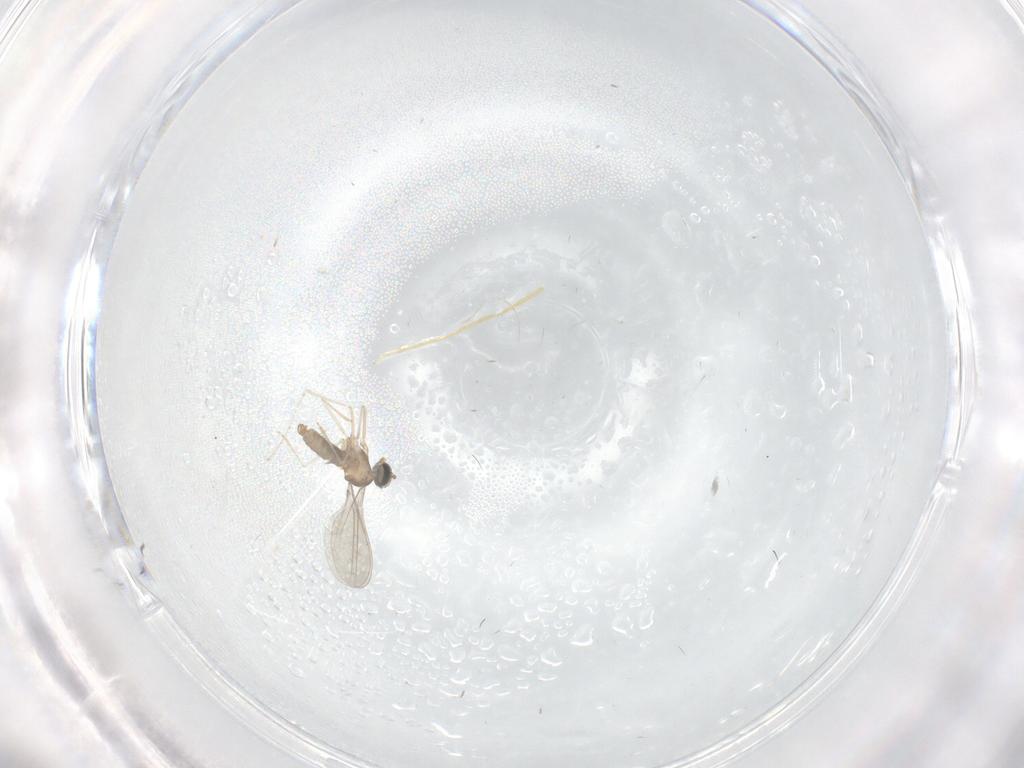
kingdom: Animalia
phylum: Arthropoda
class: Insecta
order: Diptera
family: Cecidomyiidae
